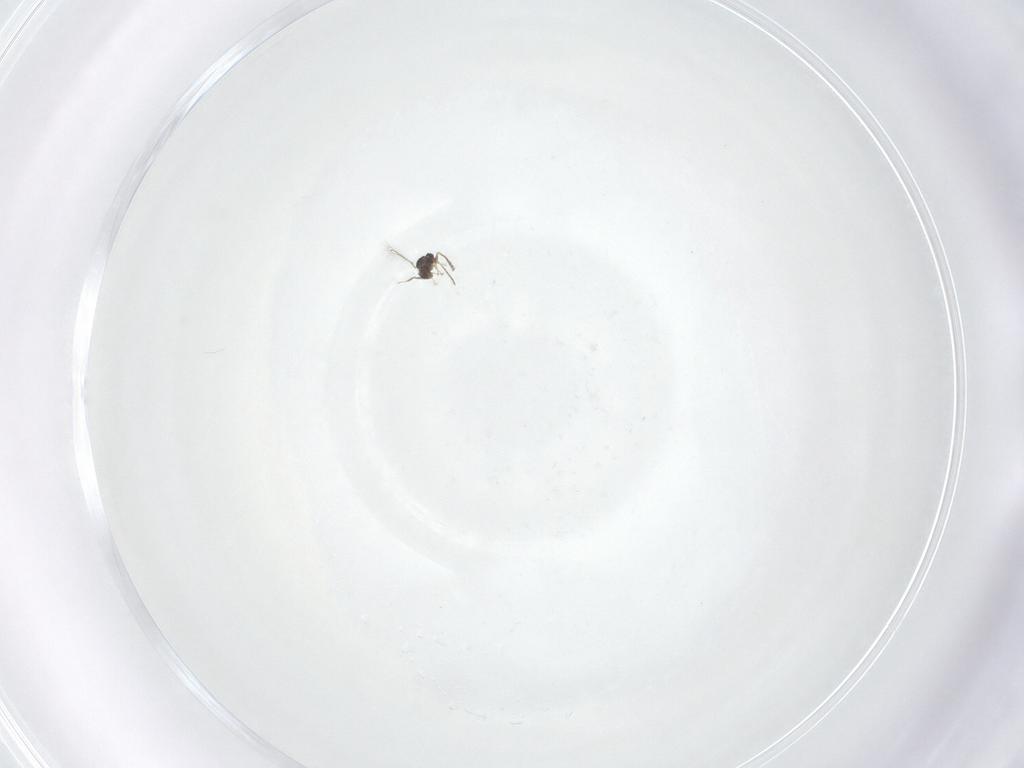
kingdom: Animalia
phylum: Arthropoda
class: Insecta
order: Hymenoptera
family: Mymaridae
